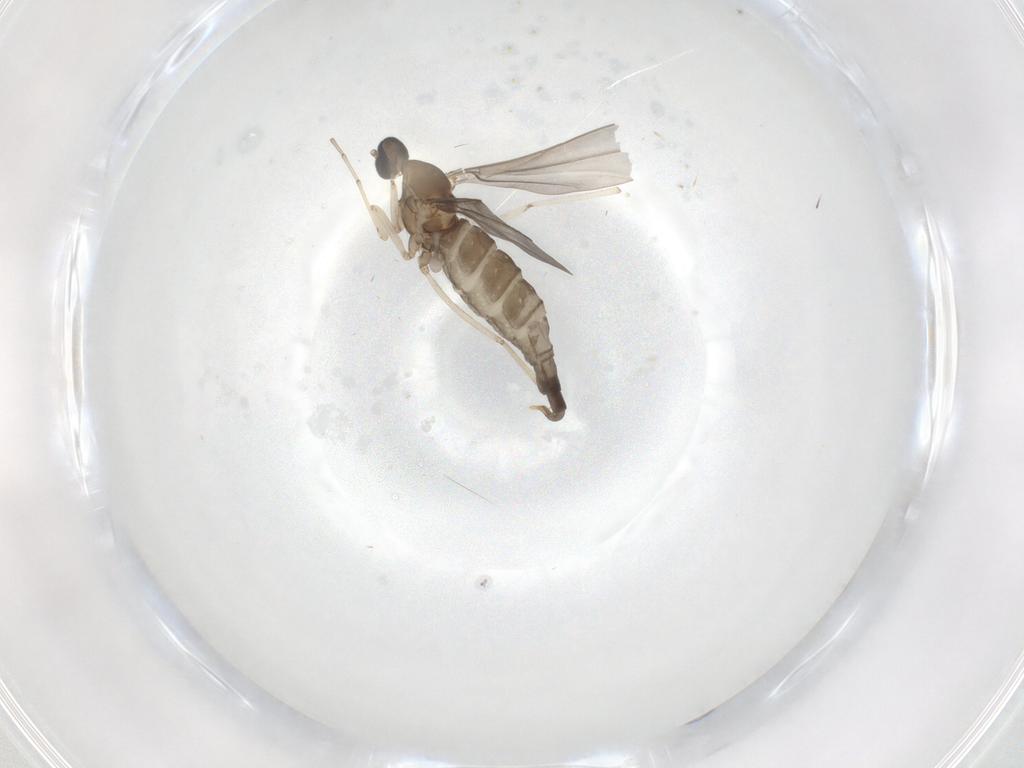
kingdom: Animalia
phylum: Arthropoda
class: Insecta
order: Diptera
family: Cecidomyiidae
